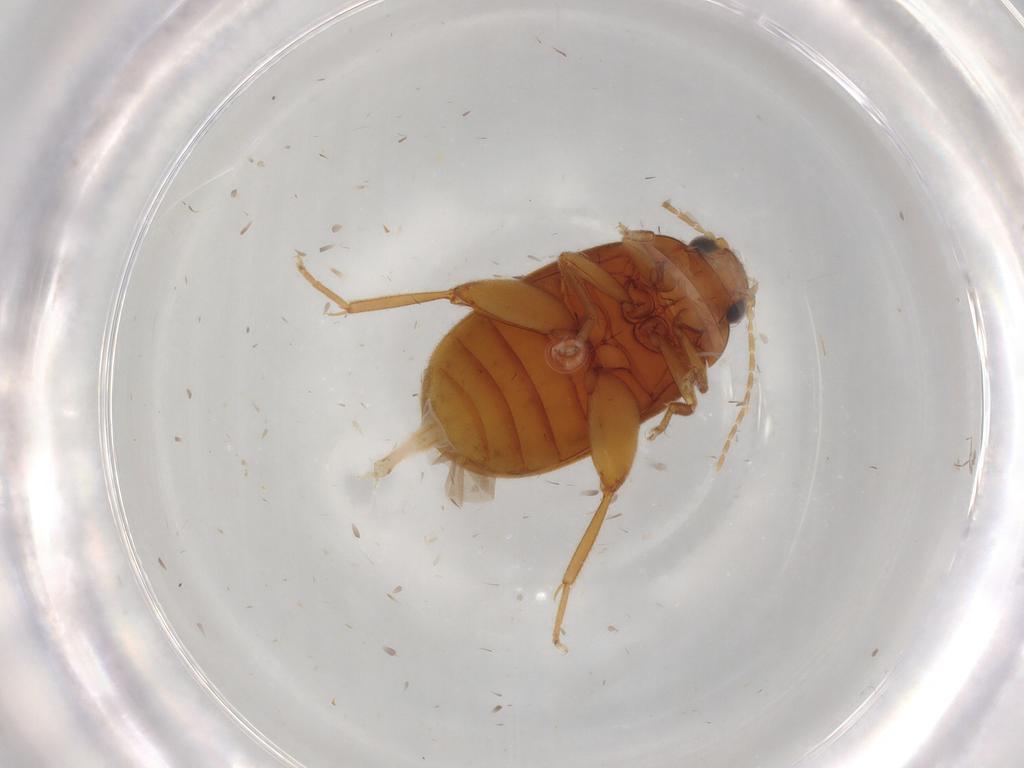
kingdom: Animalia
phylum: Arthropoda
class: Insecta
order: Coleoptera
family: Scirtidae
